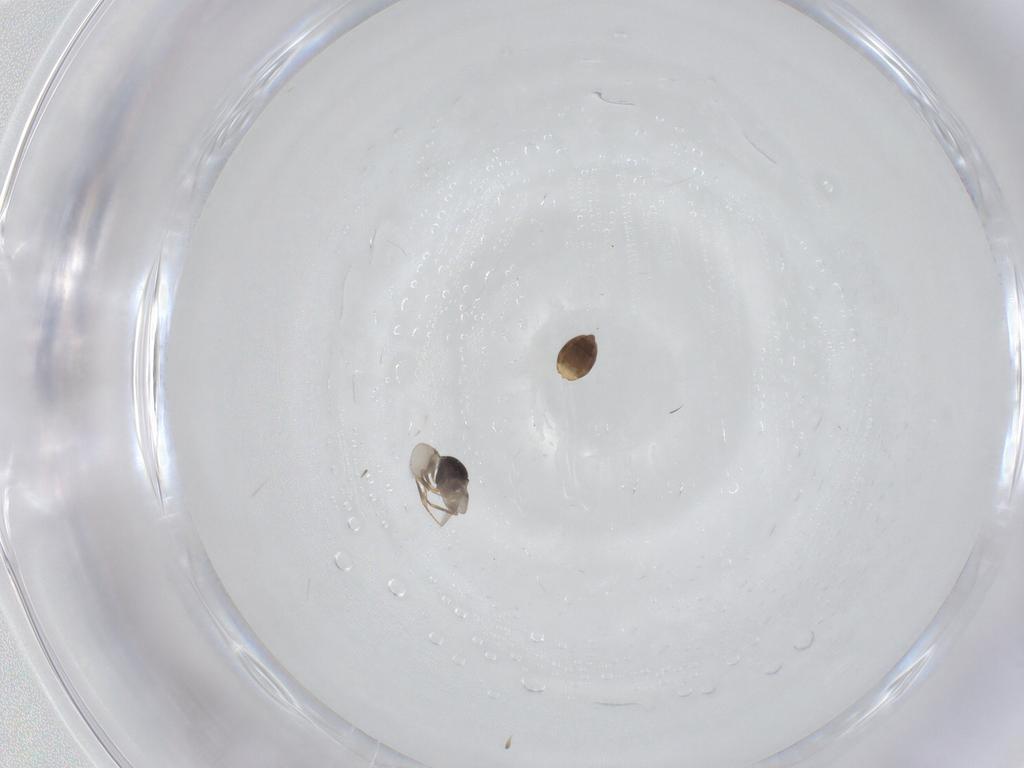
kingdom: Animalia
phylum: Arthropoda
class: Insecta
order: Hymenoptera
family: Scelionidae
